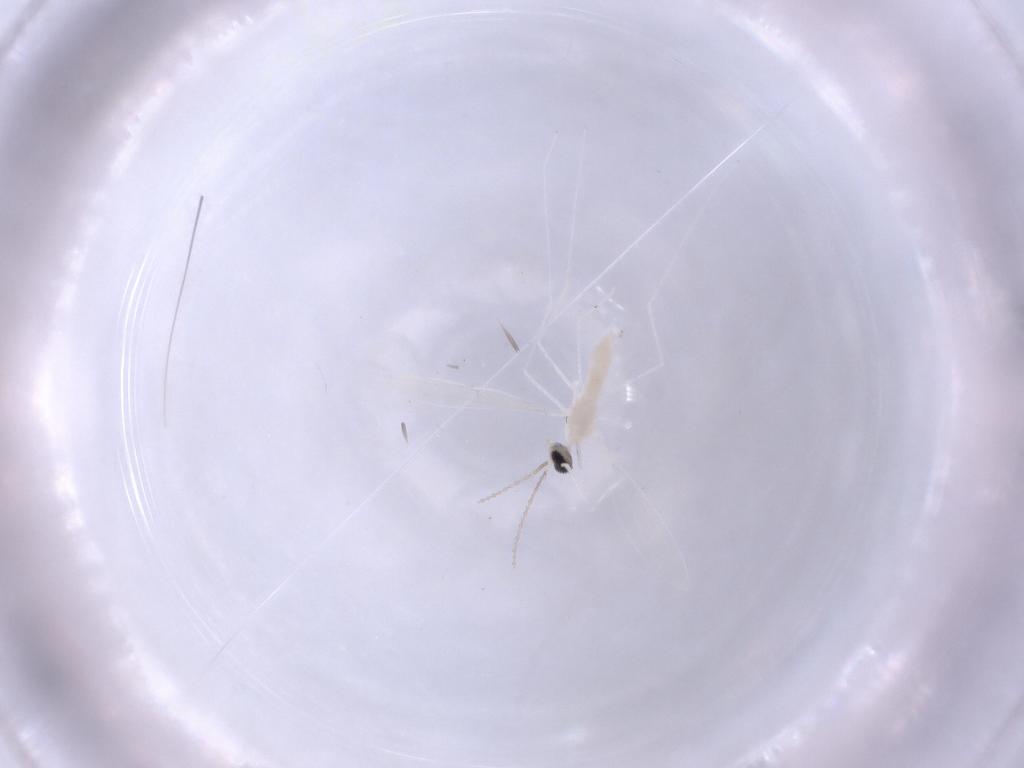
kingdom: Animalia
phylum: Arthropoda
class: Insecta
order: Diptera
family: Cecidomyiidae
